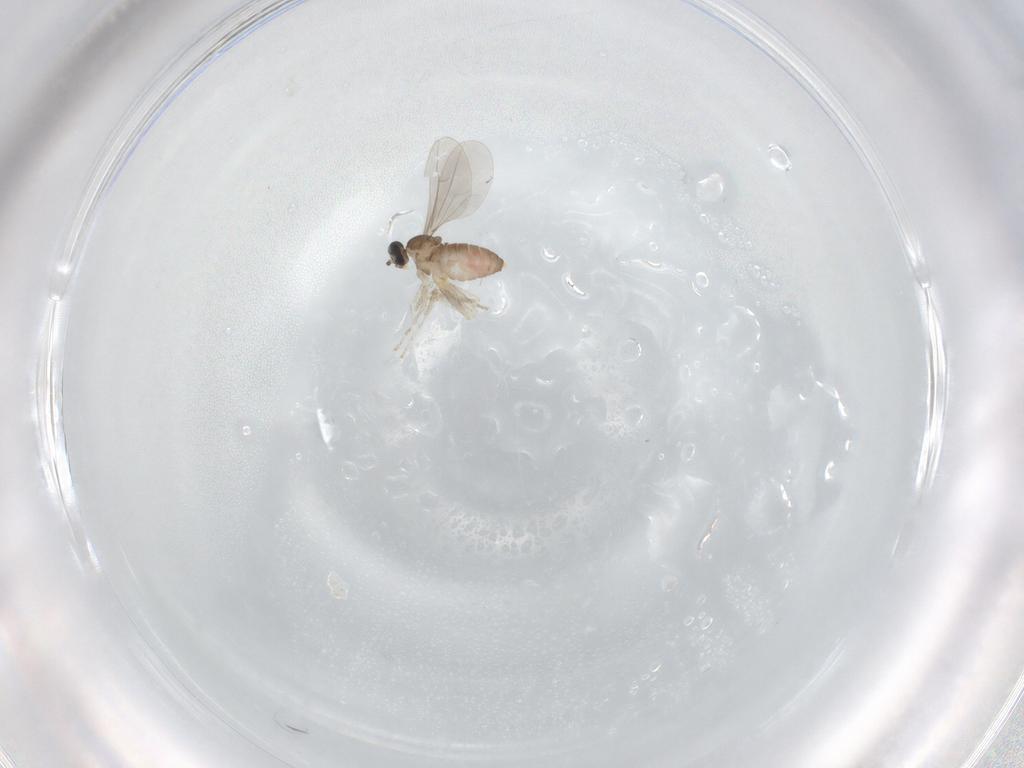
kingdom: Animalia
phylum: Arthropoda
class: Insecta
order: Diptera
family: Cecidomyiidae
